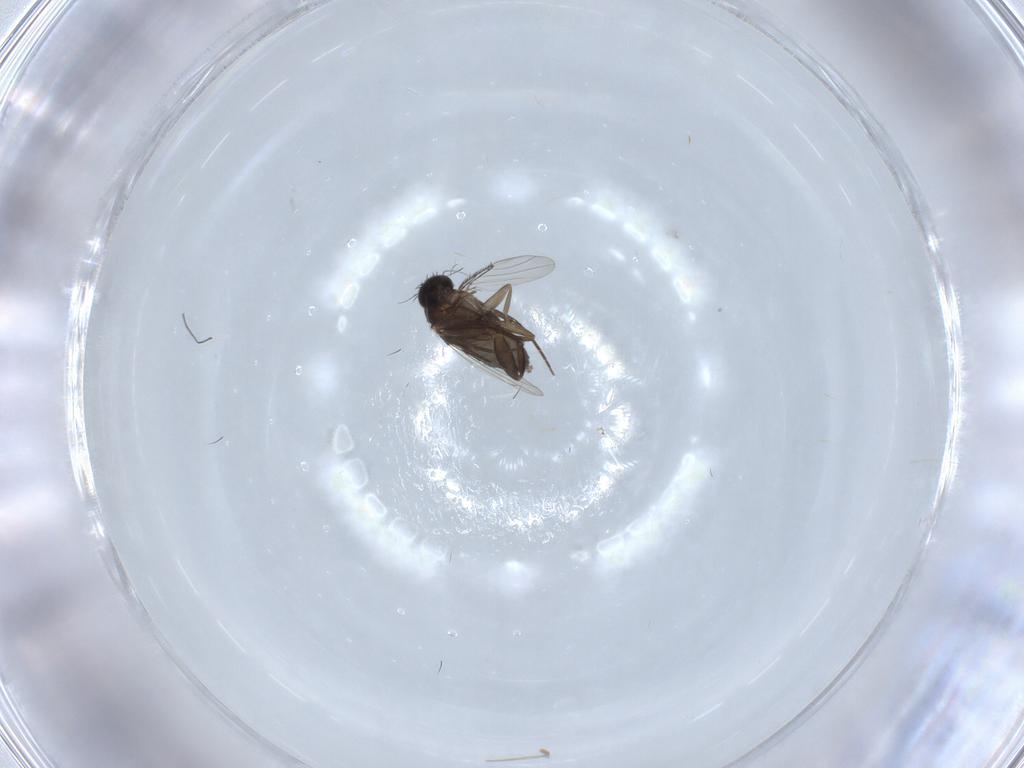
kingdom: Animalia
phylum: Arthropoda
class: Insecta
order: Diptera
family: Phoridae
